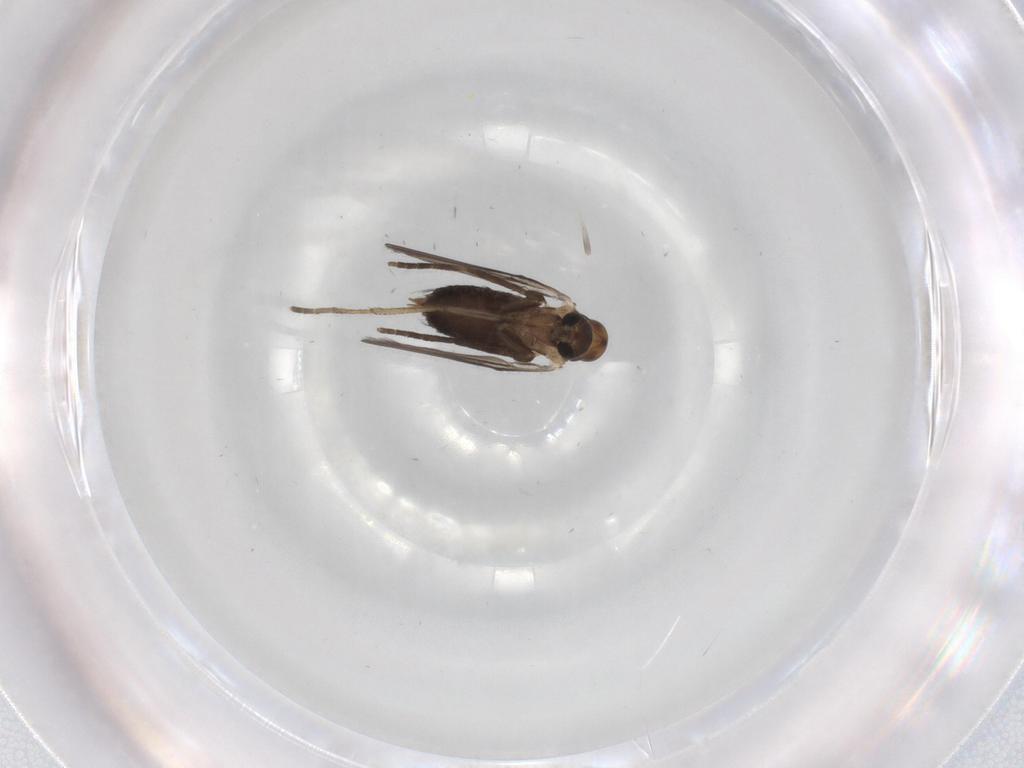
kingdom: Animalia
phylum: Arthropoda
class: Insecta
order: Diptera
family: Psychodidae
